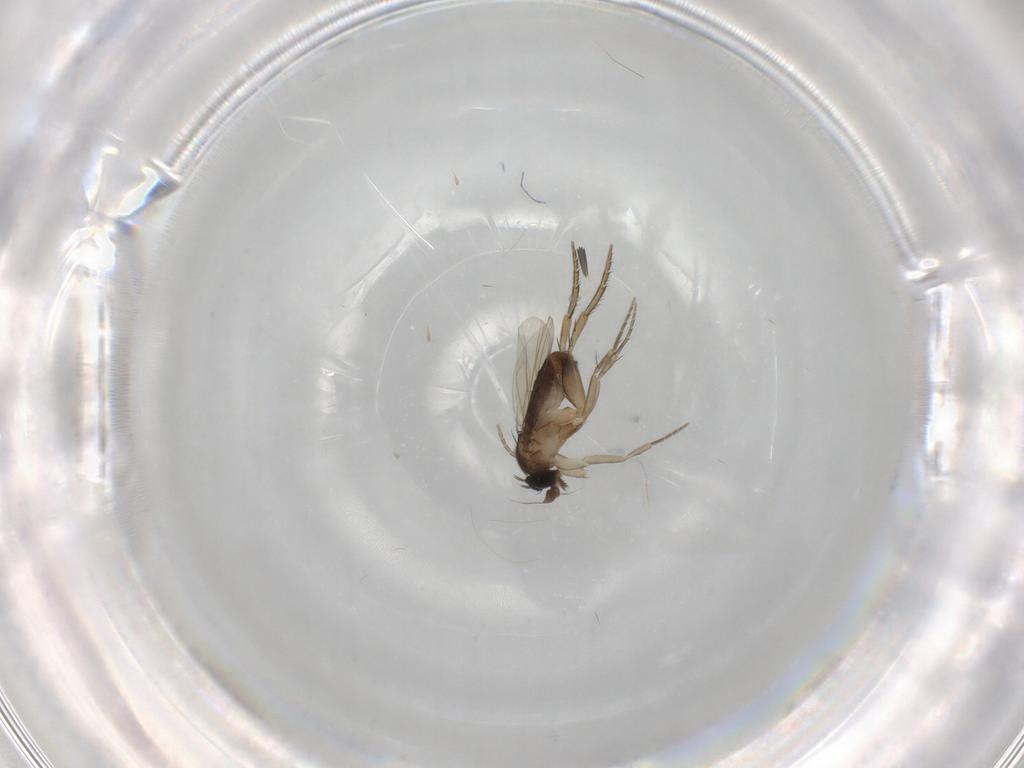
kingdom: Animalia
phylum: Arthropoda
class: Insecta
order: Diptera
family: Phoridae
